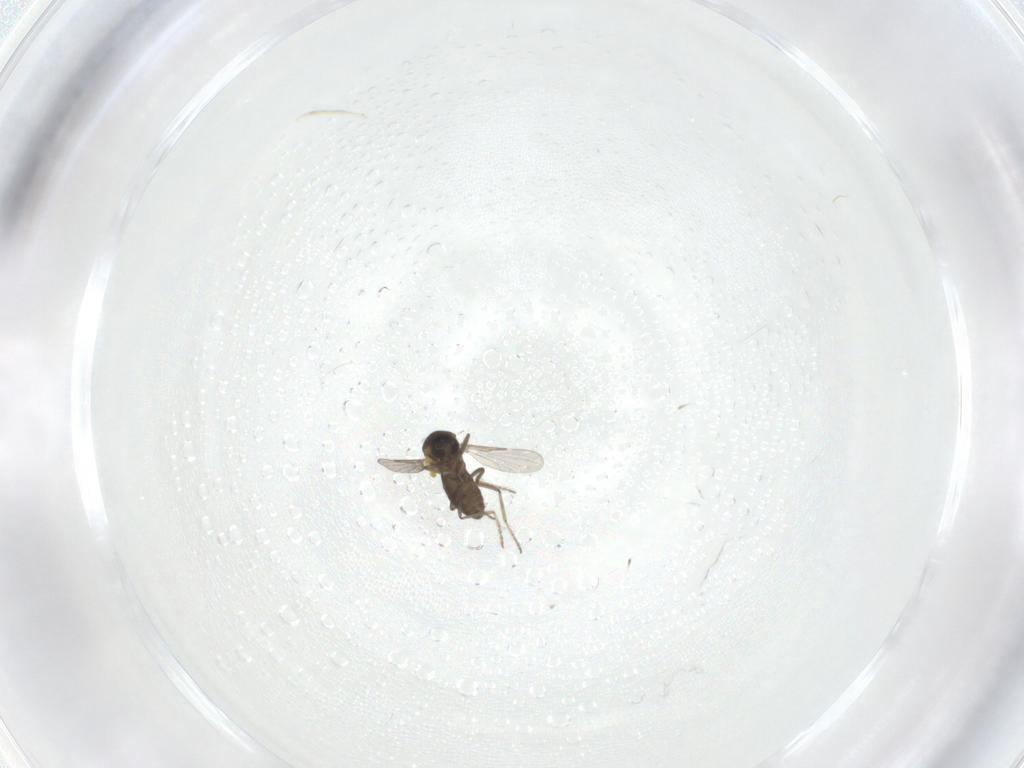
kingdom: Animalia
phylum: Arthropoda
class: Insecta
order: Diptera
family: Ceratopogonidae
